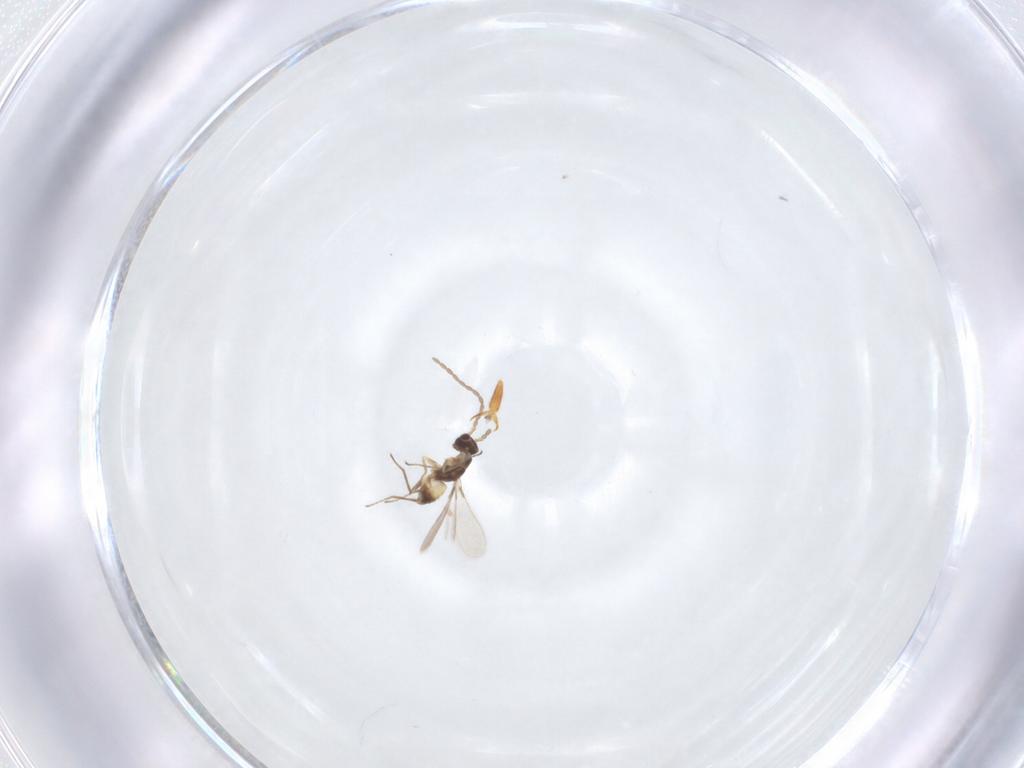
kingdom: Animalia
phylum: Arthropoda
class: Insecta
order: Hymenoptera
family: Formicidae
